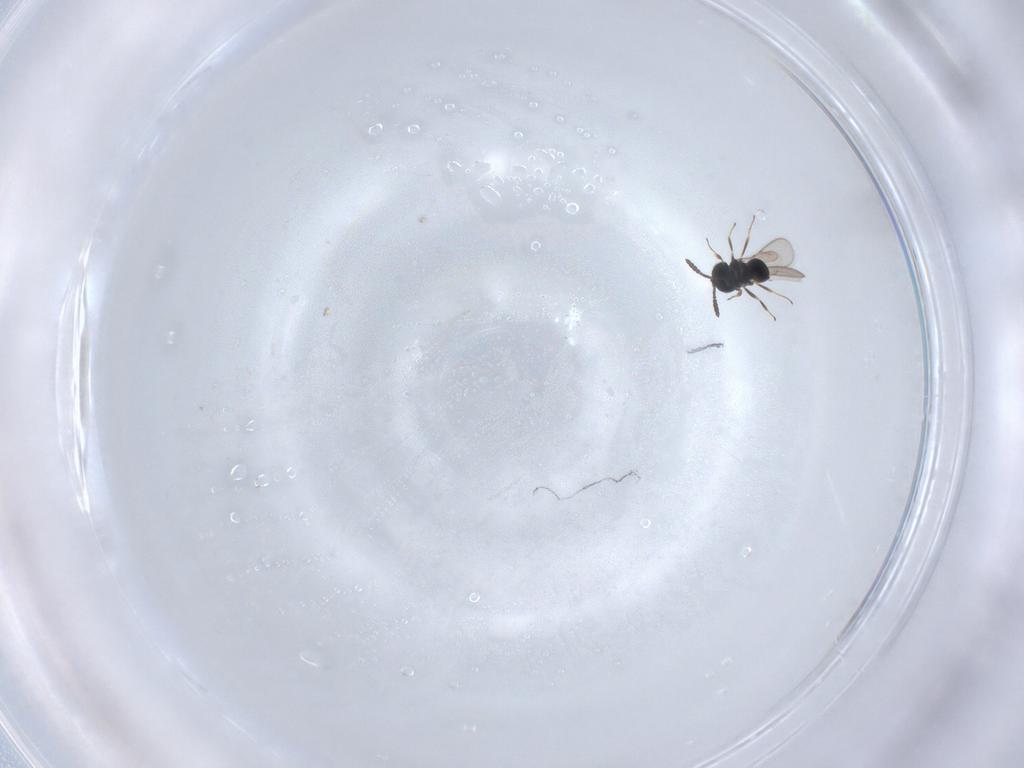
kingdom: Animalia
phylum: Arthropoda
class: Insecta
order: Hymenoptera
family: Scelionidae
